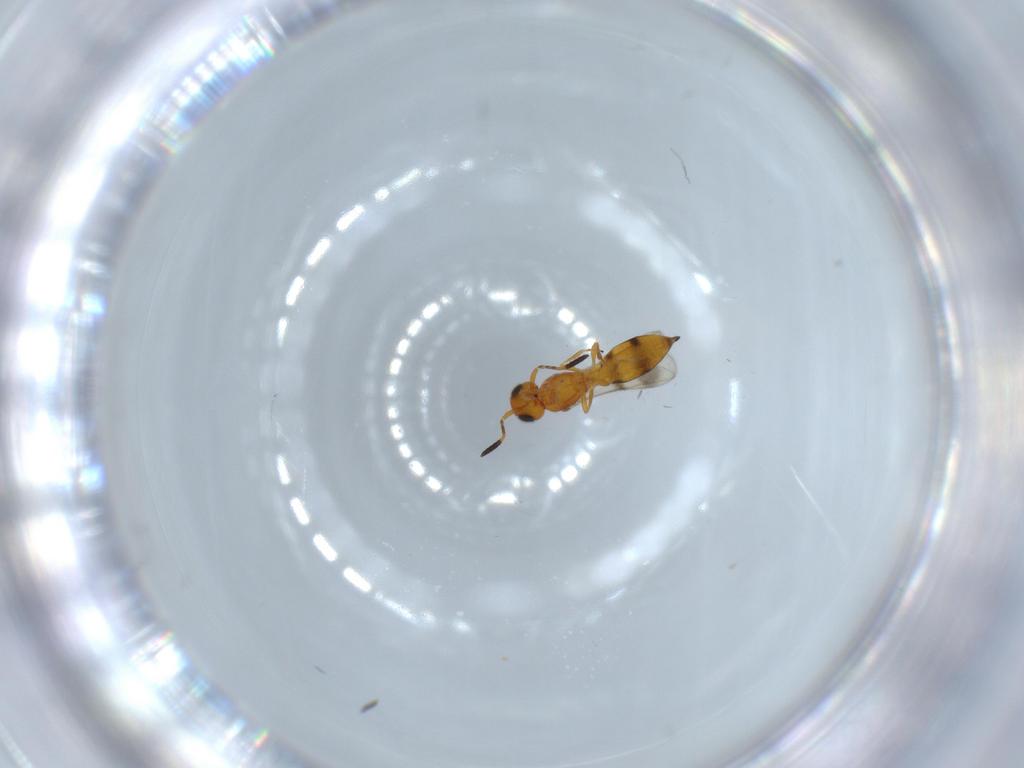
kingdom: Animalia
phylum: Arthropoda
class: Insecta
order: Hymenoptera
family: Scelionidae
